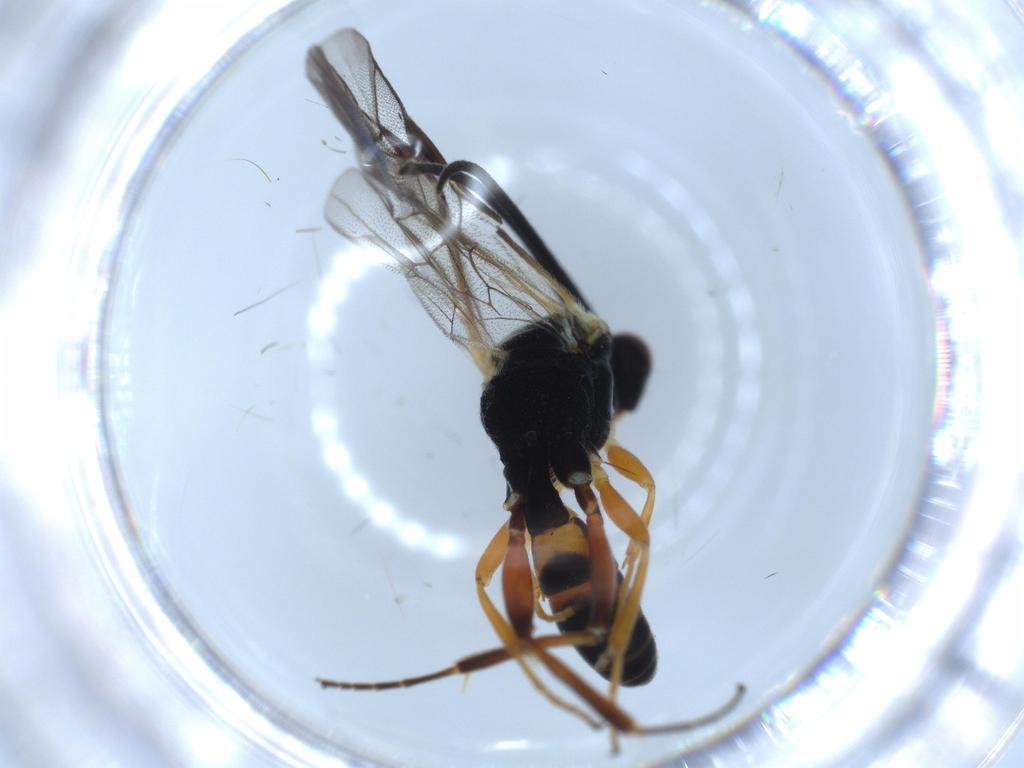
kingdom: Animalia
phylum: Arthropoda
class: Insecta
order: Hymenoptera
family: Ichneumonidae
